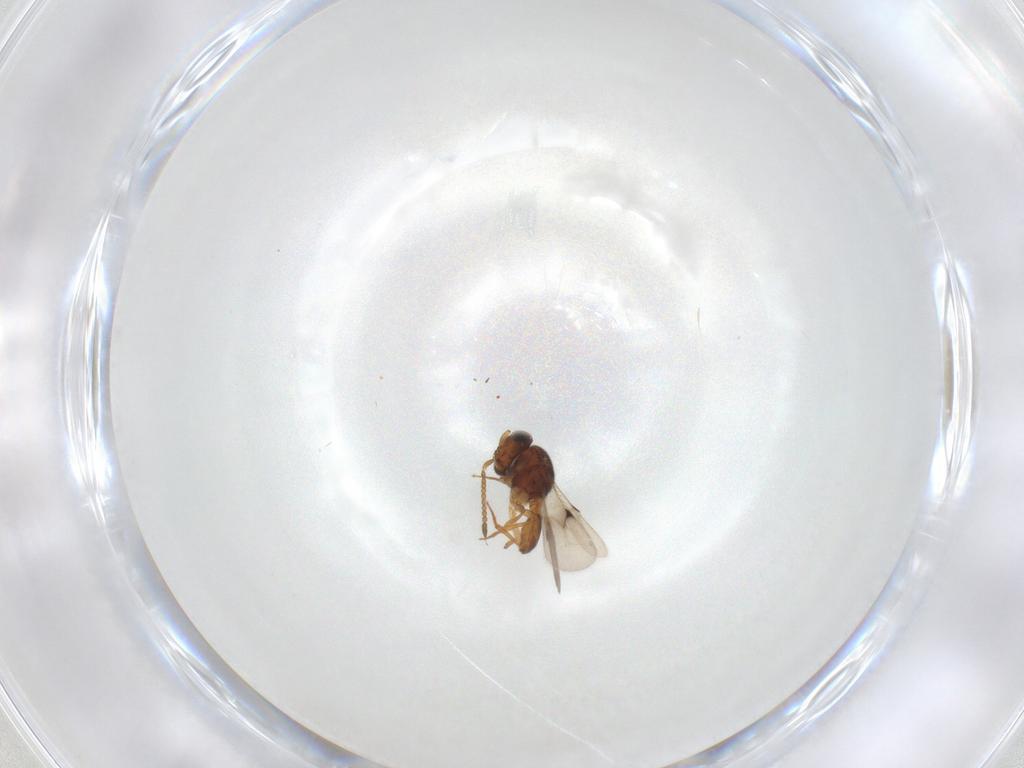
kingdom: Animalia
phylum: Arthropoda
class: Insecta
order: Hymenoptera
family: Scelionidae
